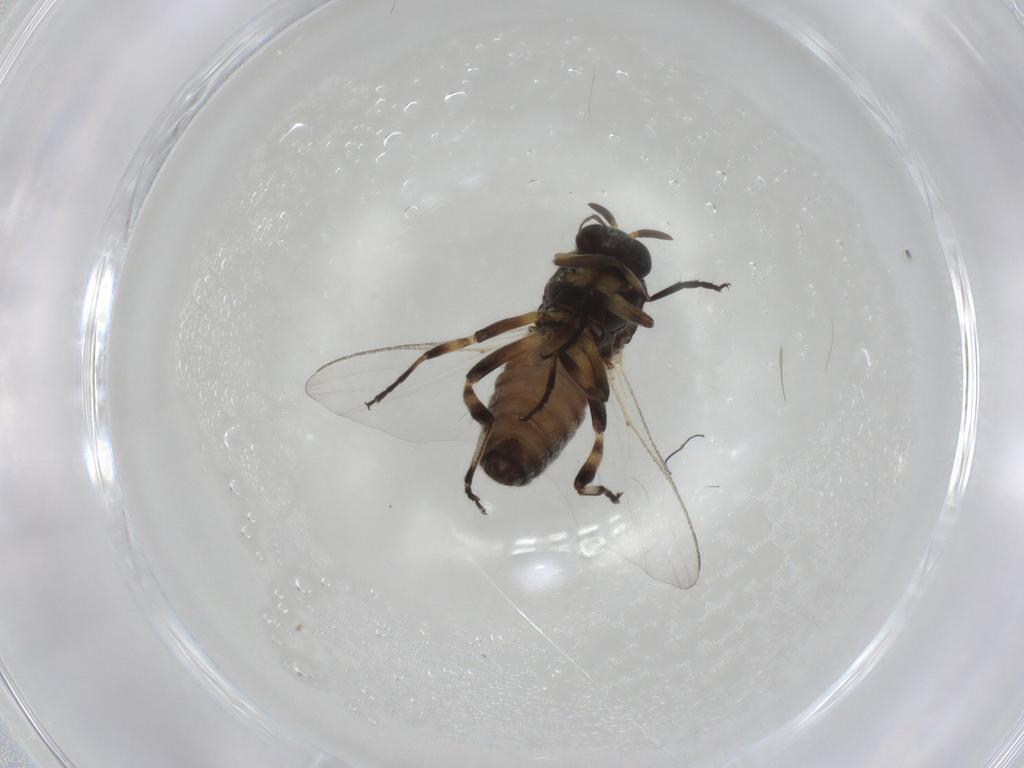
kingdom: Animalia
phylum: Arthropoda
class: Insecta
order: Diptera
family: Simuliidae
